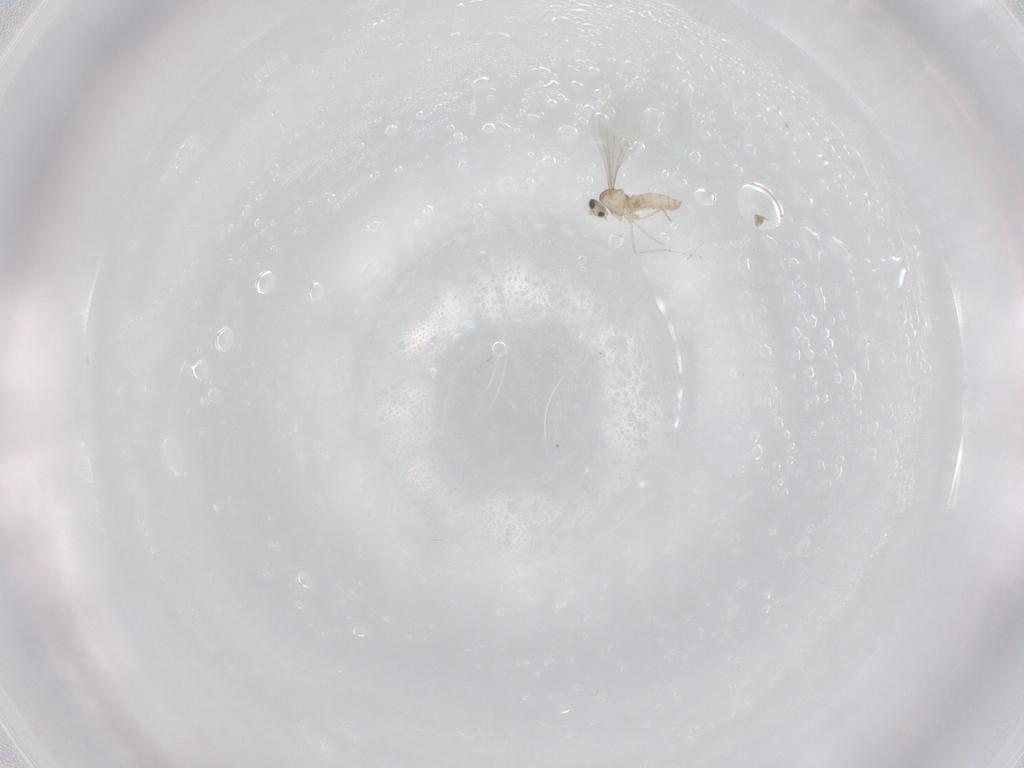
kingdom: Animalia
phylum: Arthropoda
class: Insecta
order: Diptera
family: Cecidomyiidae
